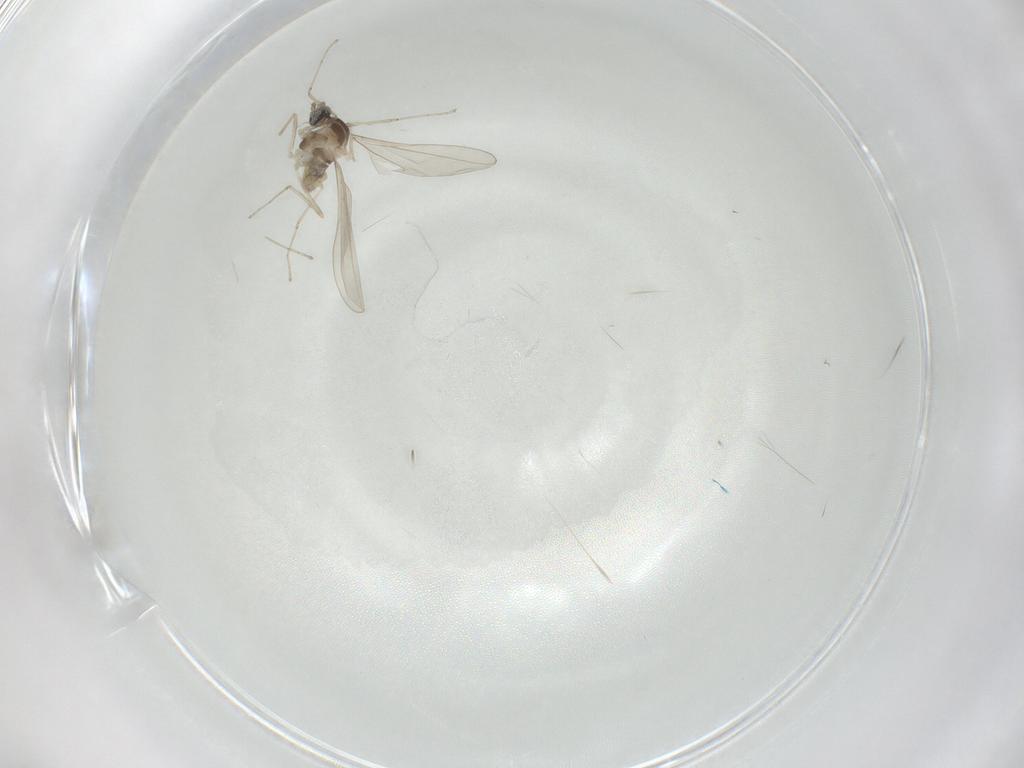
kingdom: Animalia
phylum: Arthropoda
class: Insecta
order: Diptera
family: Cecidomyiidae
